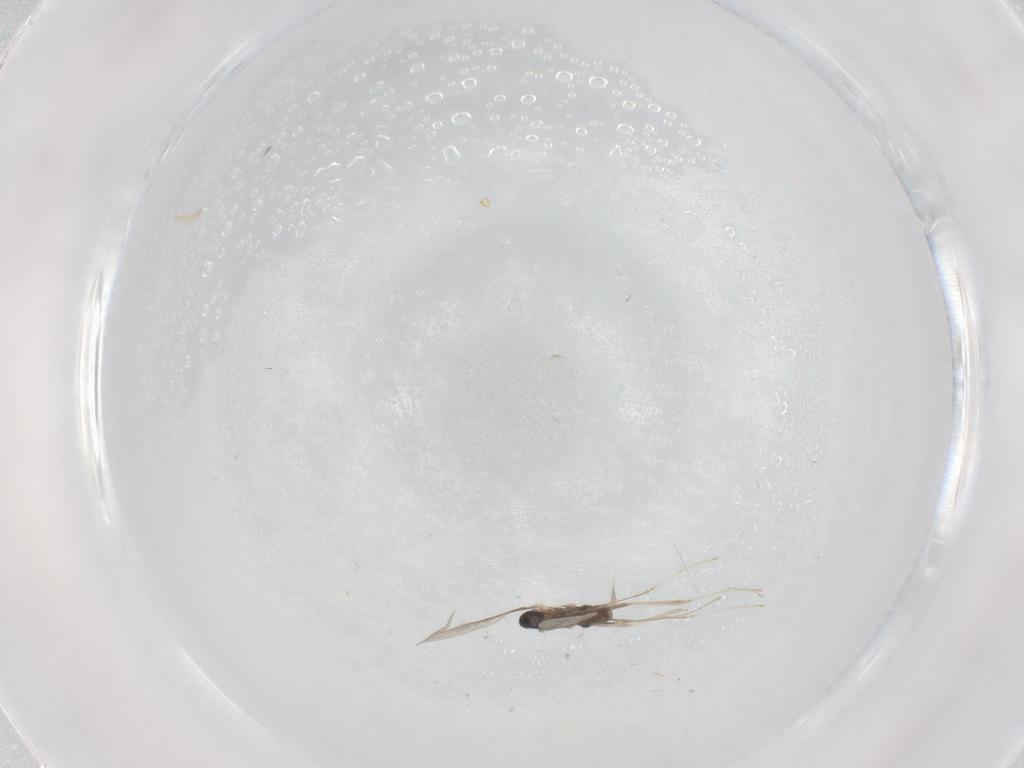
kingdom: Animalia
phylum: Arthropoda
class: Insecta
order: Diptera
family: Cecidomyiidae
